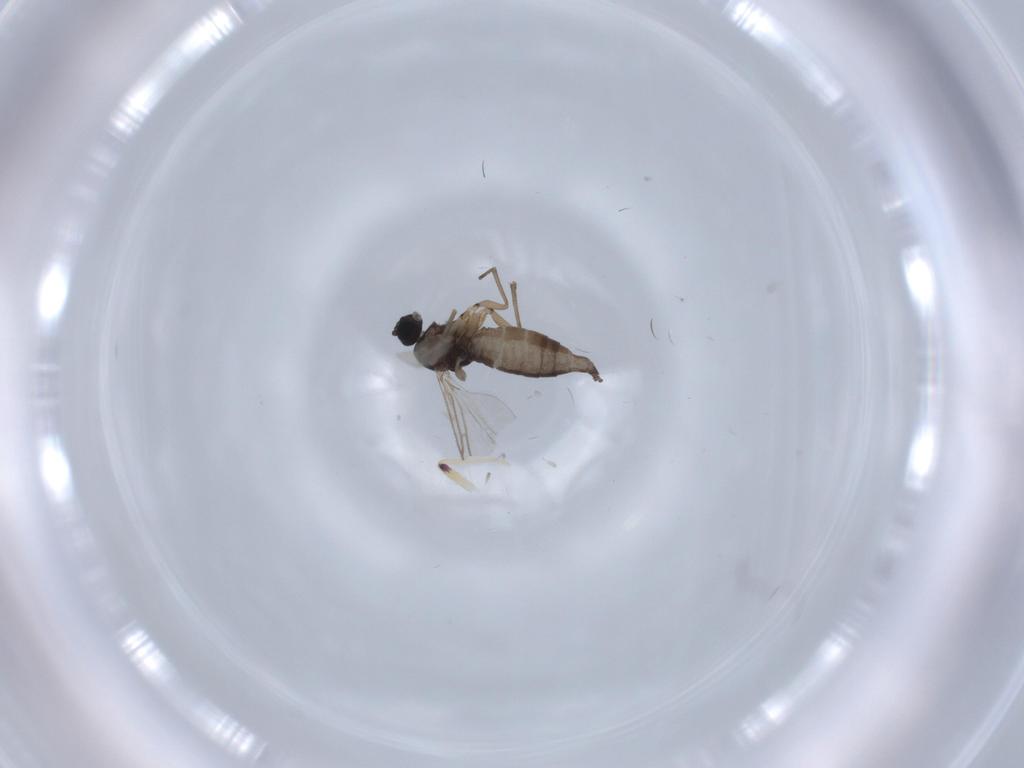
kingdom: Animalia
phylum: Arthropoda
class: Insecta
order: Diptera
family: Sciaridae
